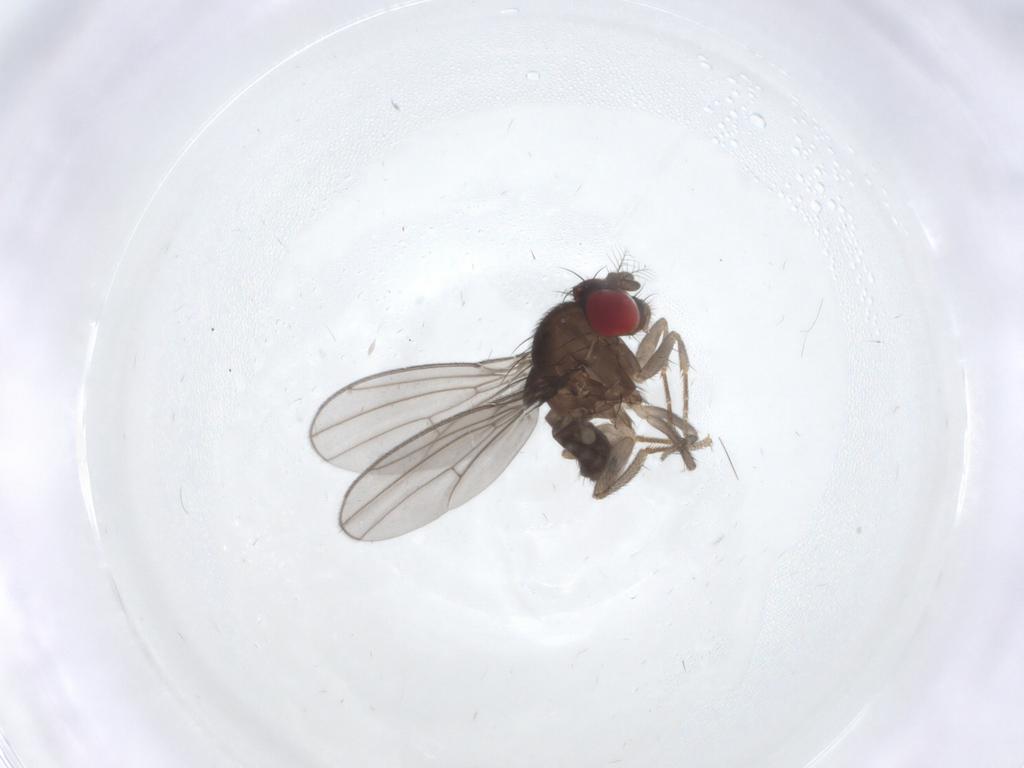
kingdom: Animalia
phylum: Arthropoda
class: Insecta
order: Diptera
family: Drosophilidae
